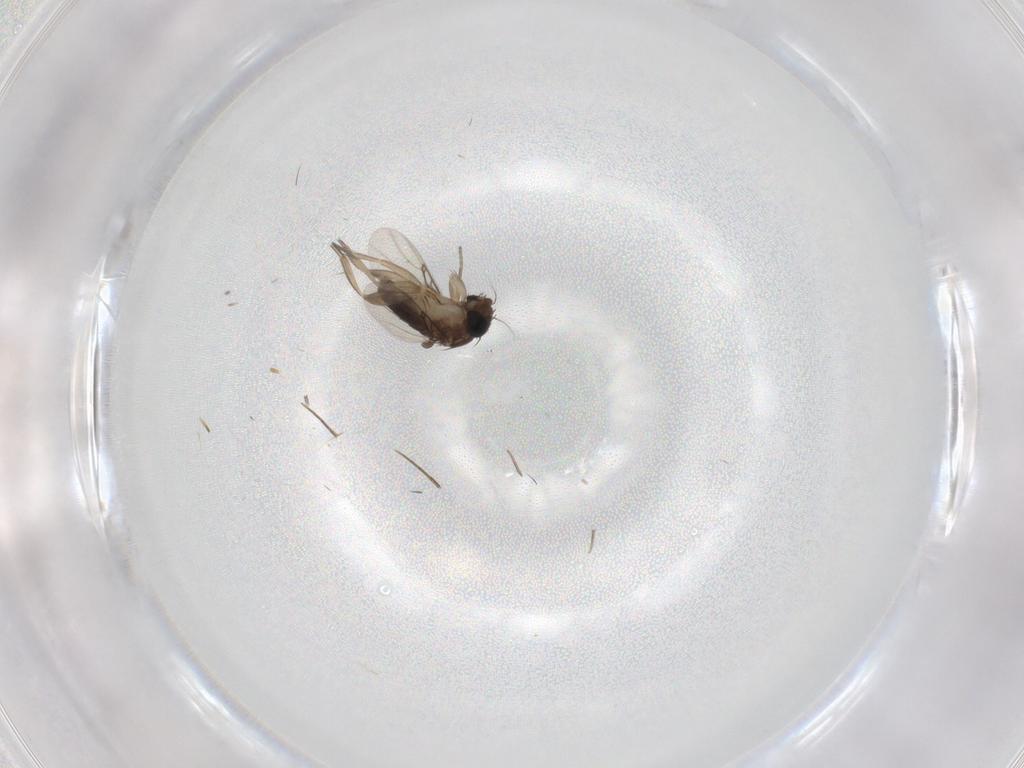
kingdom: Animalia
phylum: Arthropoda
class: Insecta
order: Diptera
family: Phoridae
